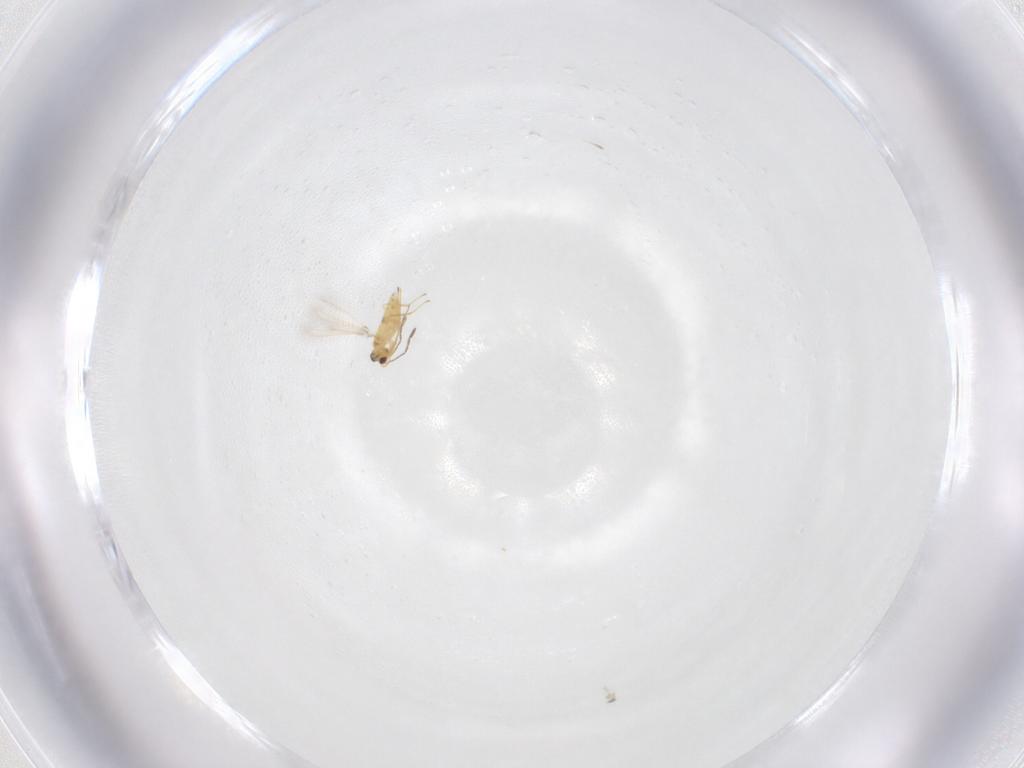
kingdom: Animalia
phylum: Arthropoda
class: Insecta
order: Hymenoptera
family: Mymaridae
